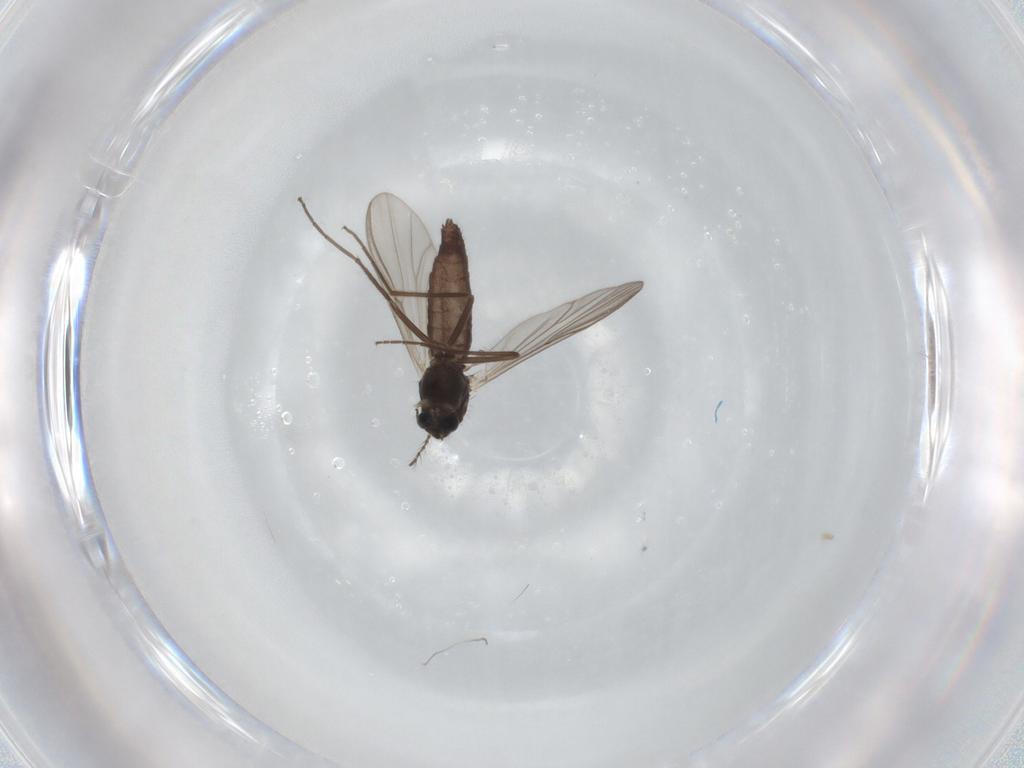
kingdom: Animalia
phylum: Arthropoda
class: Insecta
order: Diptera
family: Chironomidae
